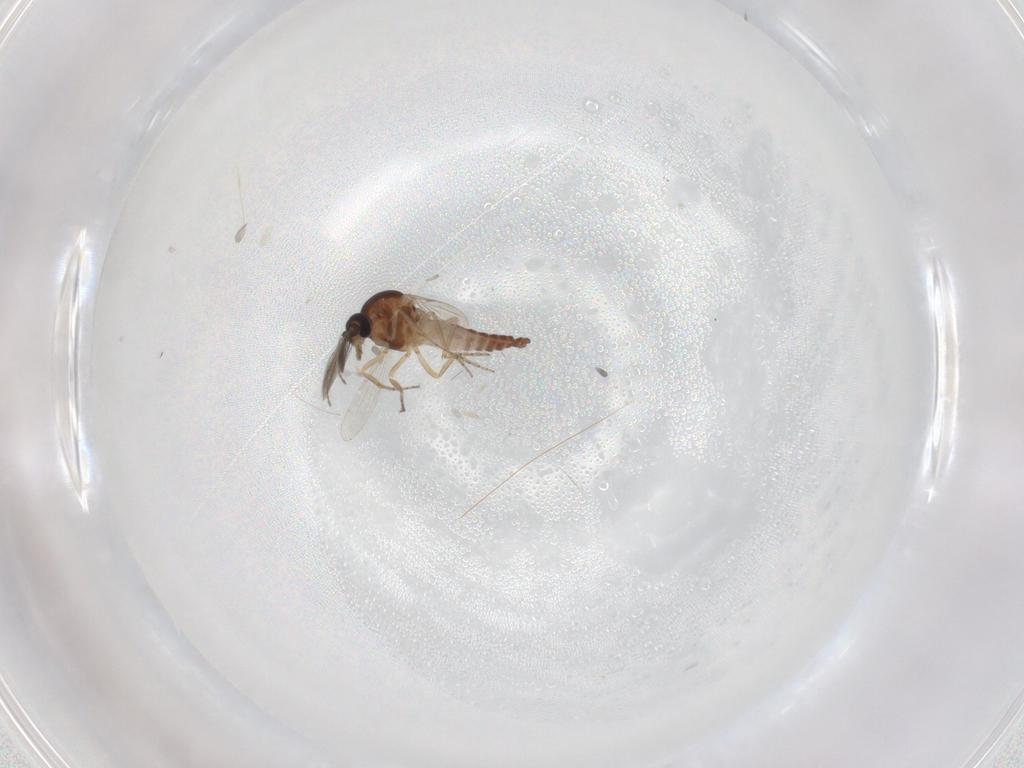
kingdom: Animalia
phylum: Arthropoda
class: Insecta
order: Diptera
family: Ceratopogonidae
